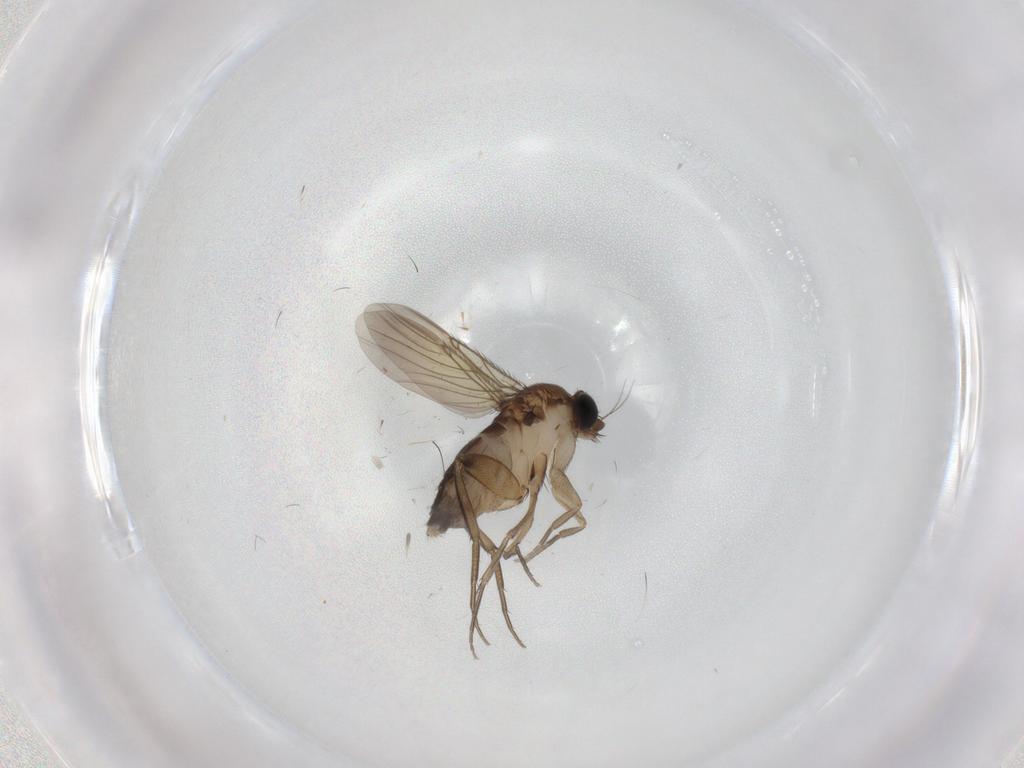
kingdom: Animalia
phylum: Arthropoda
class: Insecta
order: Diptera
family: Phoridae
